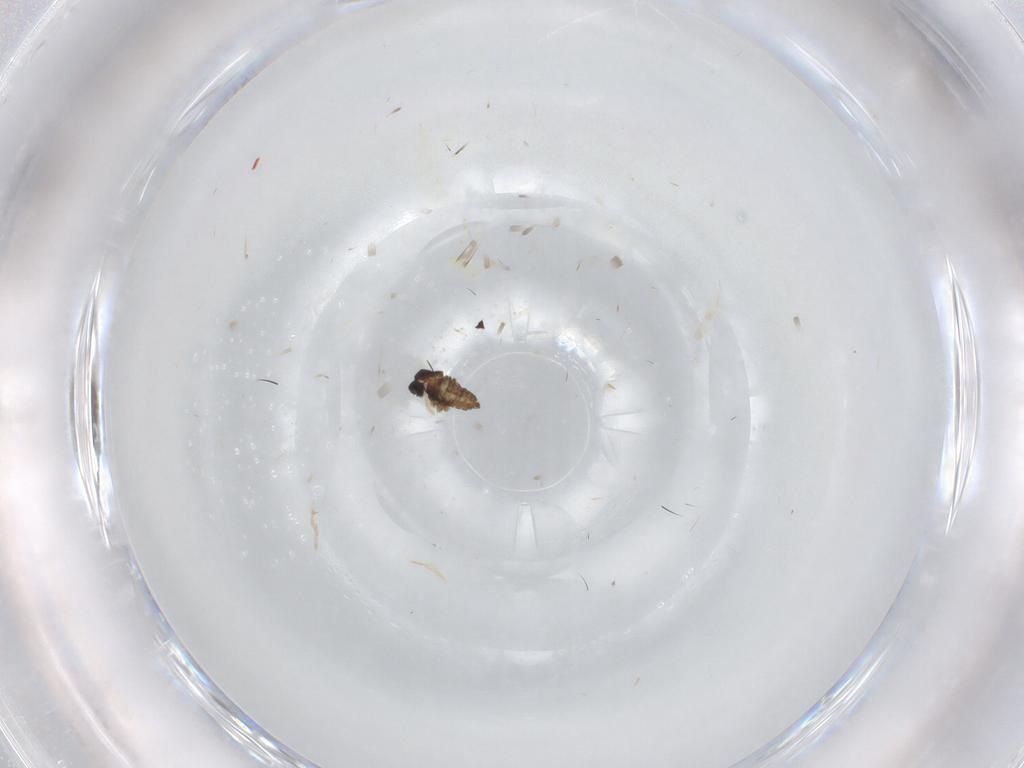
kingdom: Animalia
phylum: Arthropoda
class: Insecta
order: Diptera
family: Cecidomyiidae
